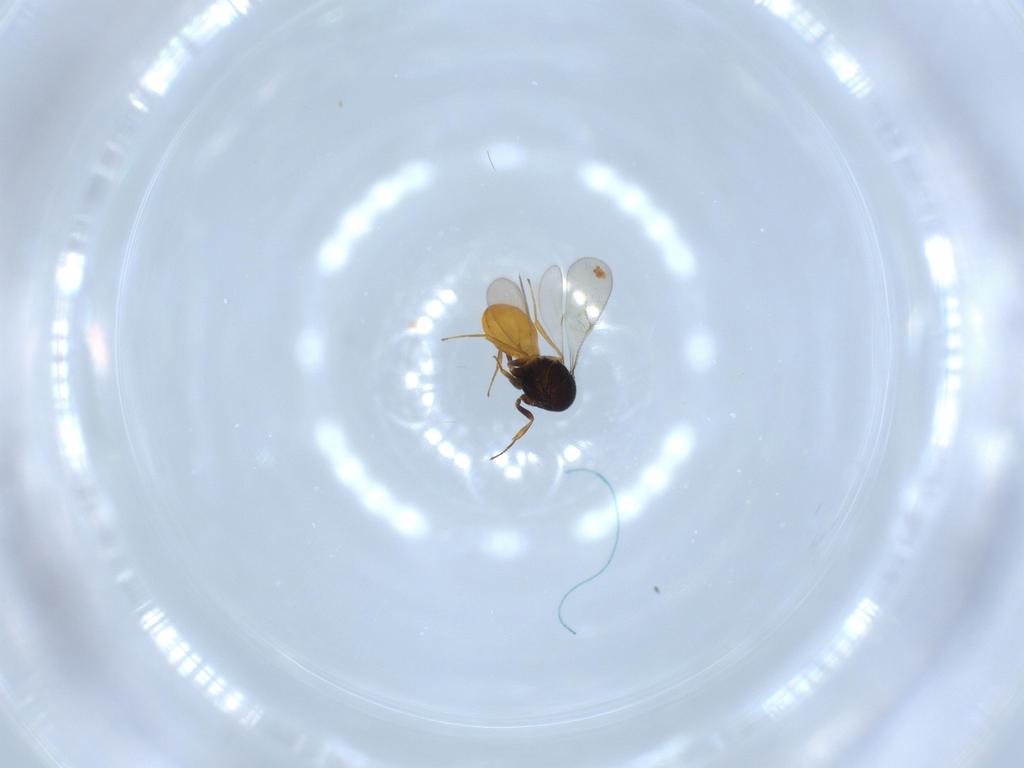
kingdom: Animalia
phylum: Arthropoda
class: Insecta
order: Hymenoptera
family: Scelionidae
